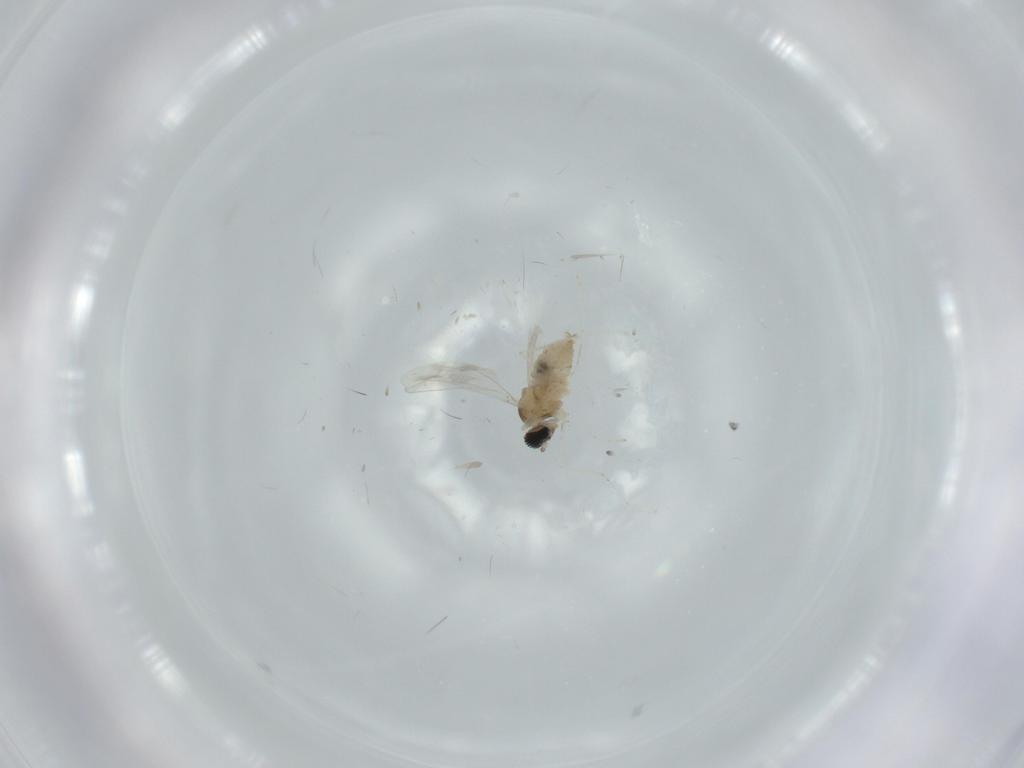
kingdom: Animalia
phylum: Arthropoda
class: Insecta
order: Diptera
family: Cecidomyiidae
